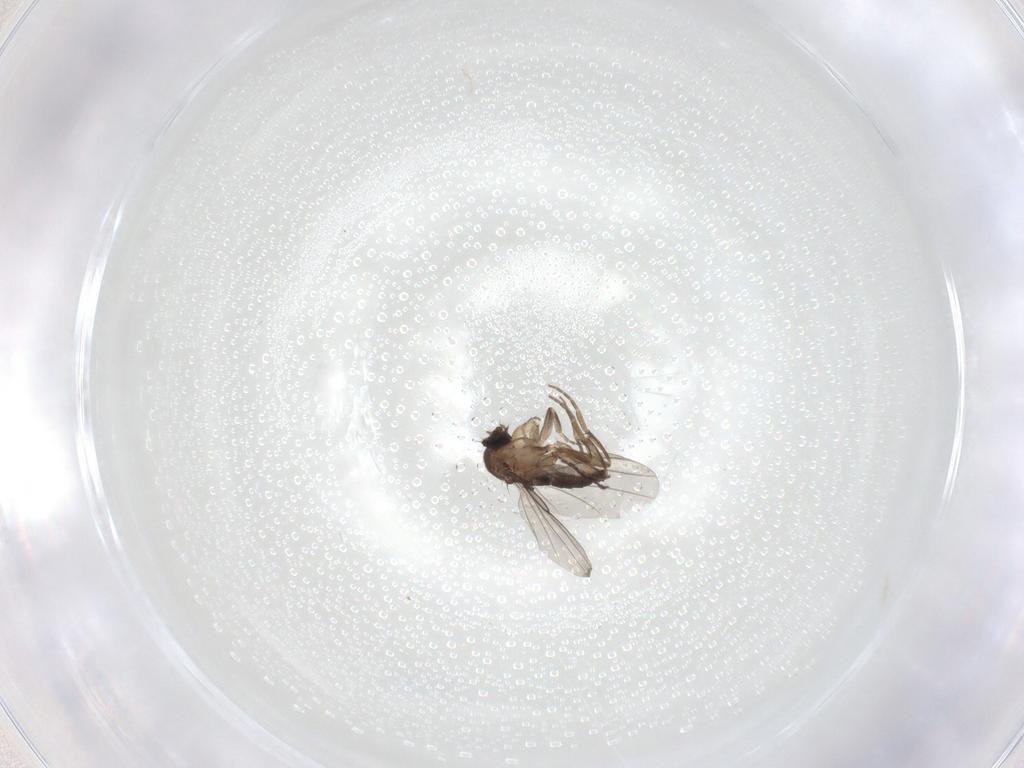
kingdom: Animalia
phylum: Arthropoda
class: Insecta
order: Diptera
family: Phoridae
